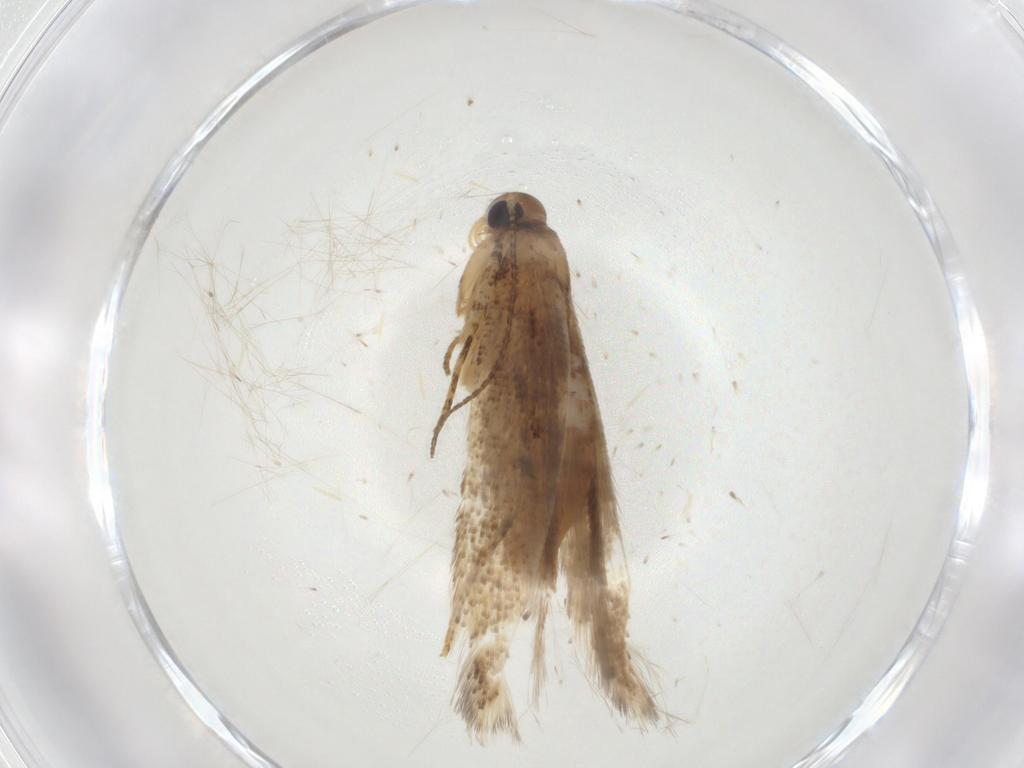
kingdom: Animalia
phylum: Arthropoda
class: Insecta
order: Lepidoptera
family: Gelechiidae
